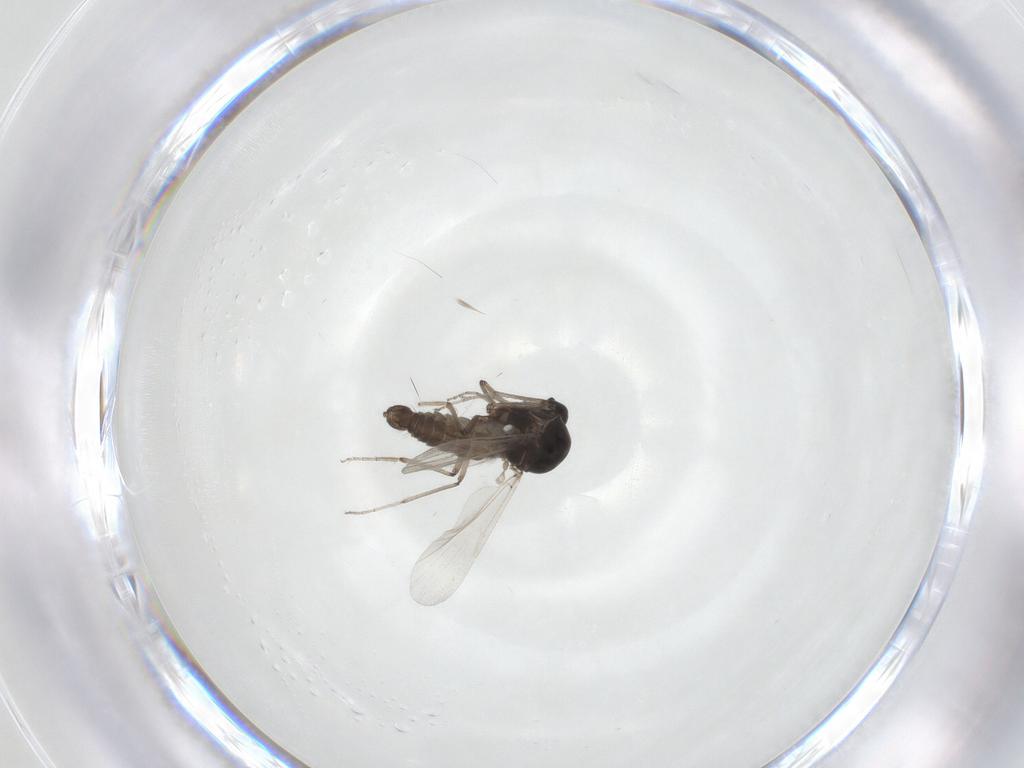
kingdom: Animalia
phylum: Arthropoda
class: Insecta
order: Diptera
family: Ceratopogonidae
